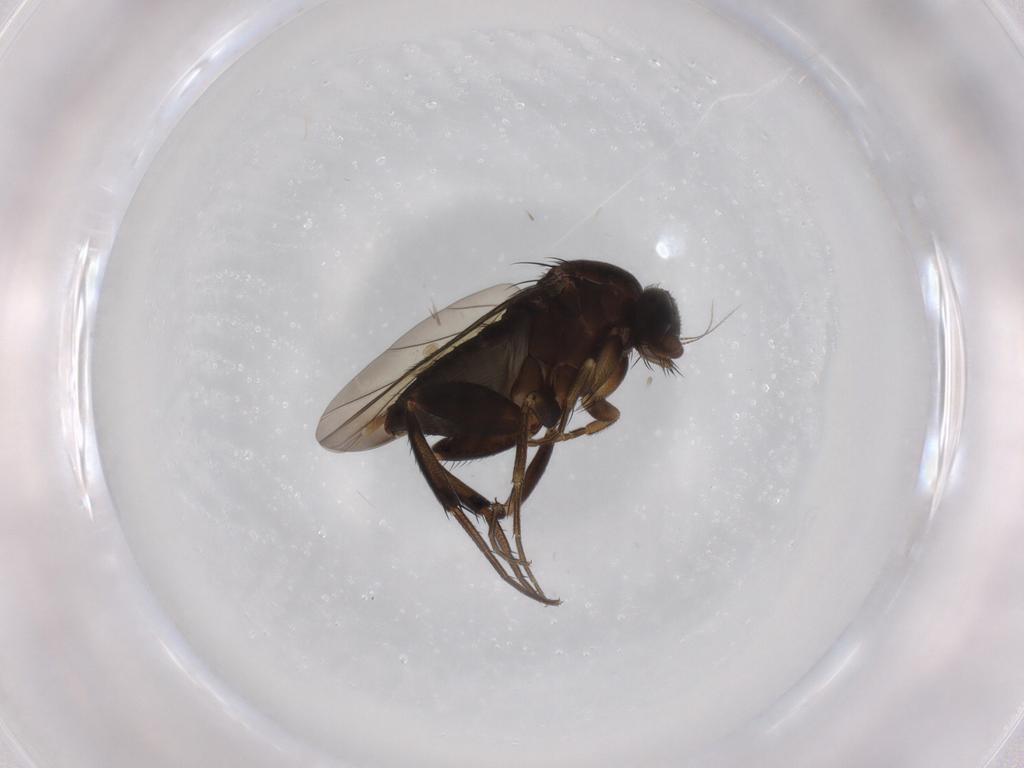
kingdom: Animalia
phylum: Arthropoda
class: Insecta
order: Diptera
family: Phoridae
